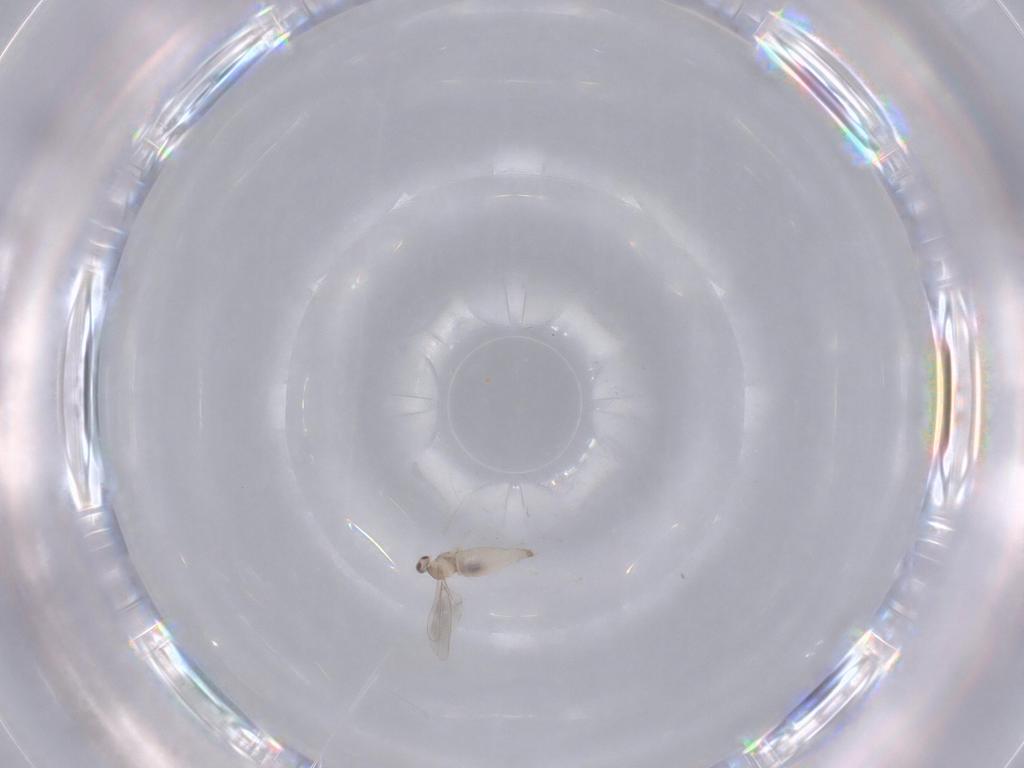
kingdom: Animalia
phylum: Arthropoda
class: Insecta
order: Diptera
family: Cecidomyiidae
